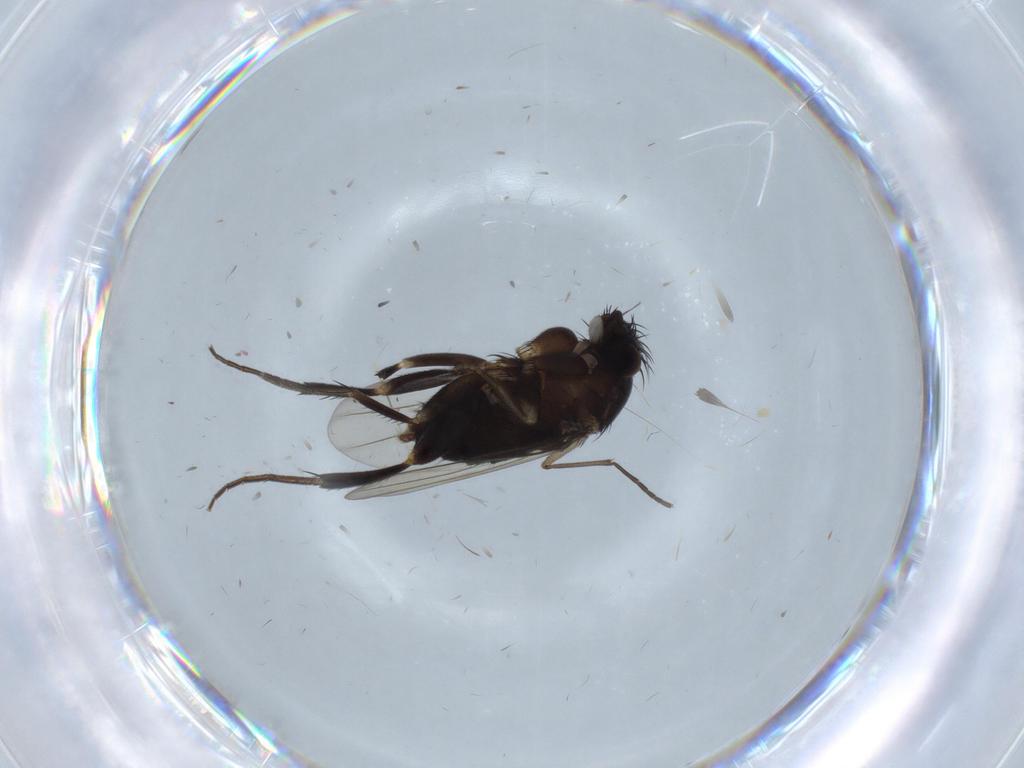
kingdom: Animalia
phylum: Arthropoda
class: Insecta
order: Diptera
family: Phoridae
